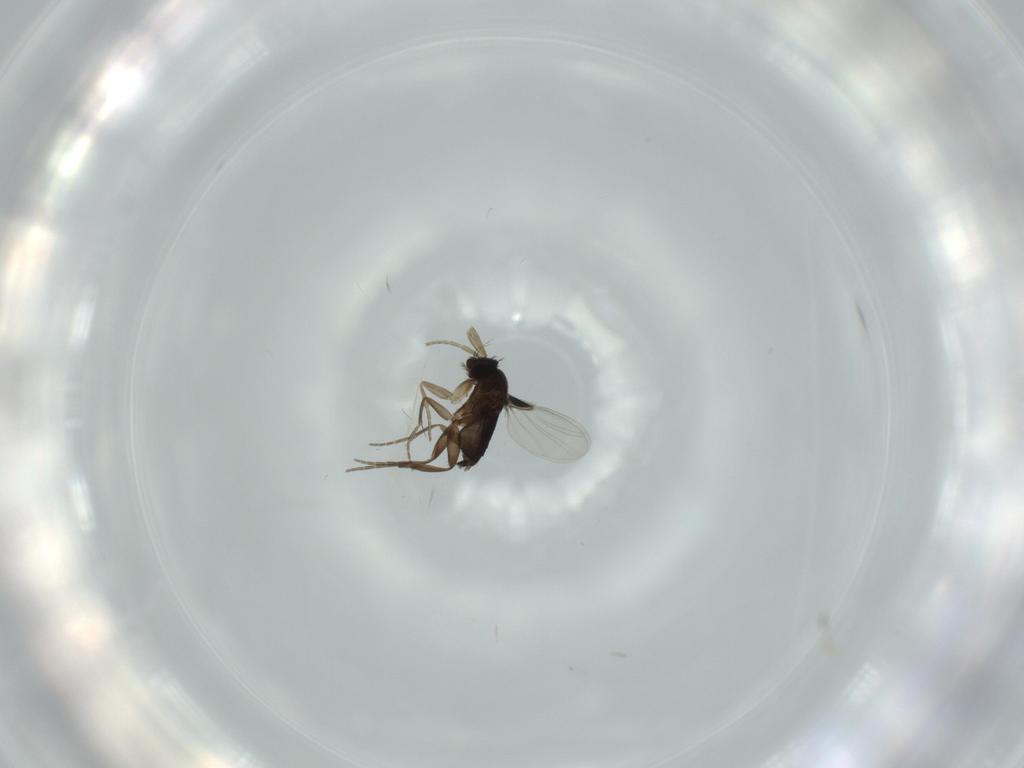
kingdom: Animalia
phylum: Arthropoda
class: Insecta
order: Diptera
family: Phoridae
